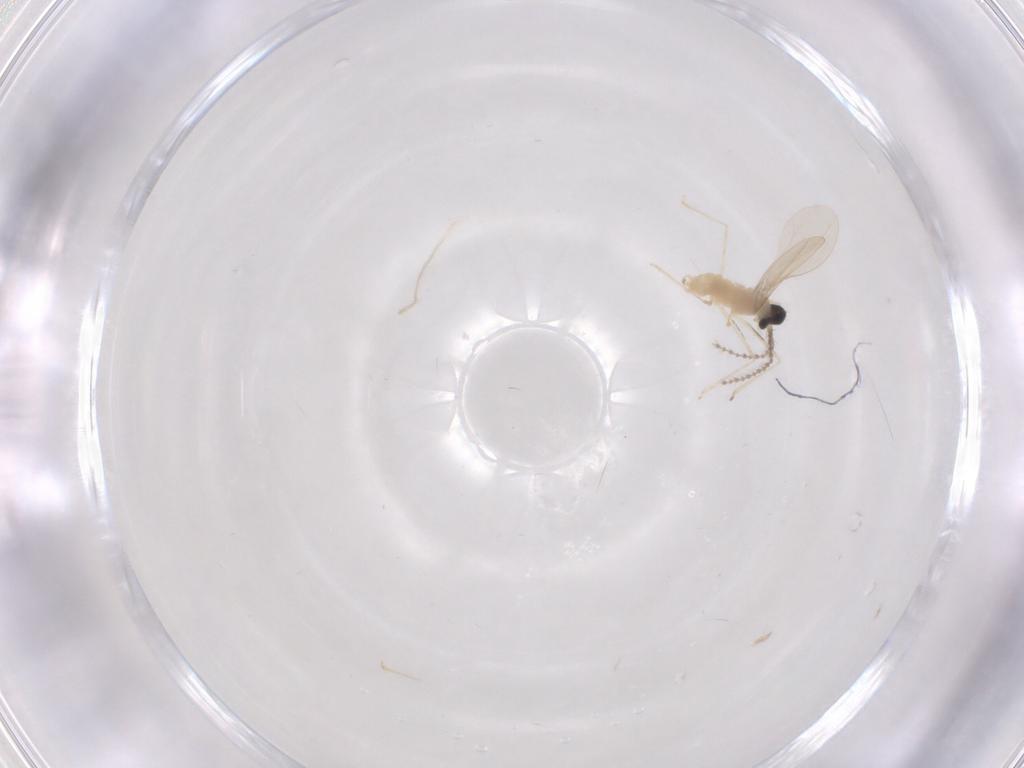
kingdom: Animalia
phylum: Arthropoda
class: Insecta
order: Diptera
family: Cecidomyiidae
